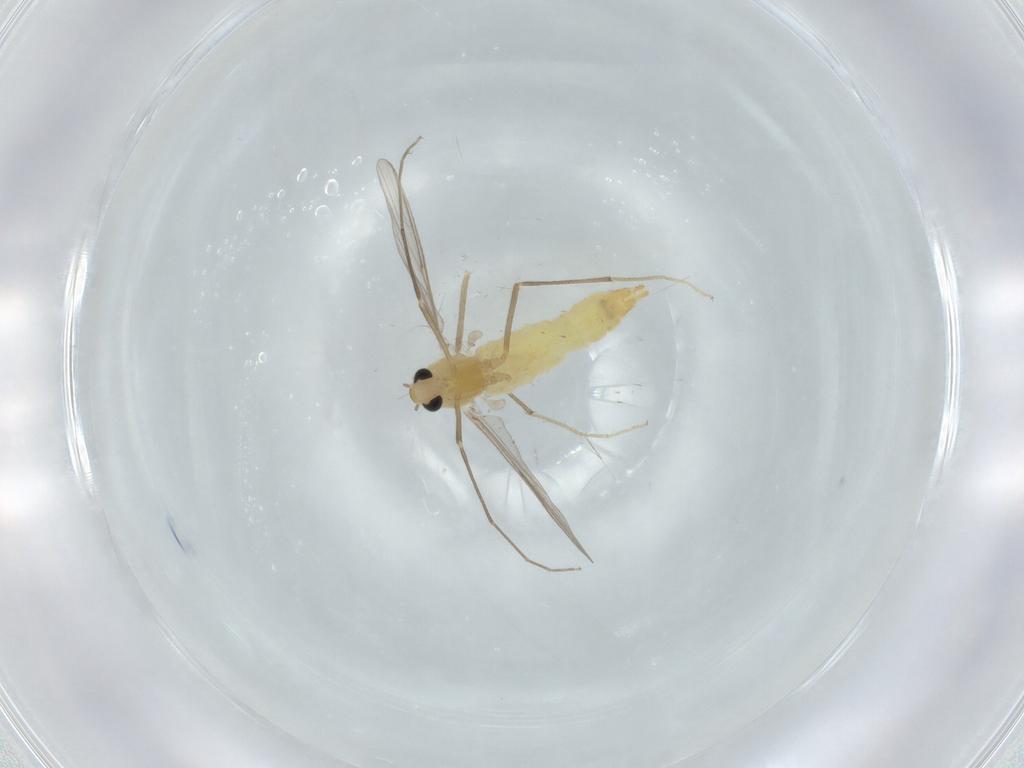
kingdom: Animalia
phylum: Arthropoda
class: Insecta
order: Diptera
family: Chironomidae
